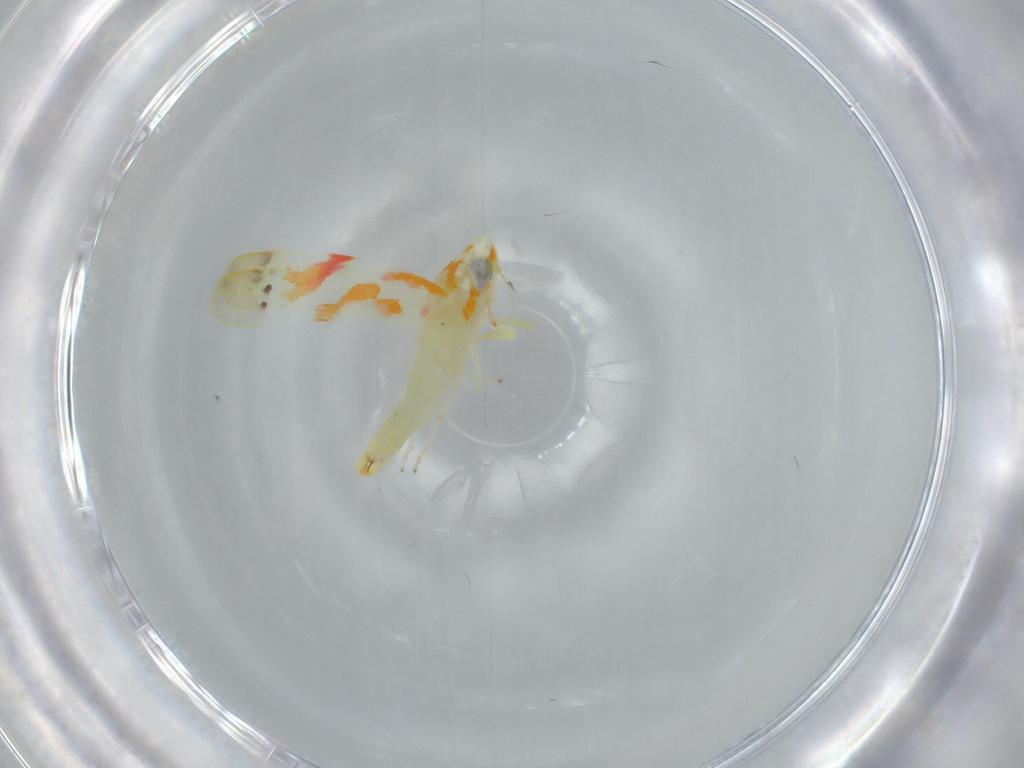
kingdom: Animalia
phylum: Arthropoda
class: Insecta
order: Hemiptera
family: Cicadellidae
